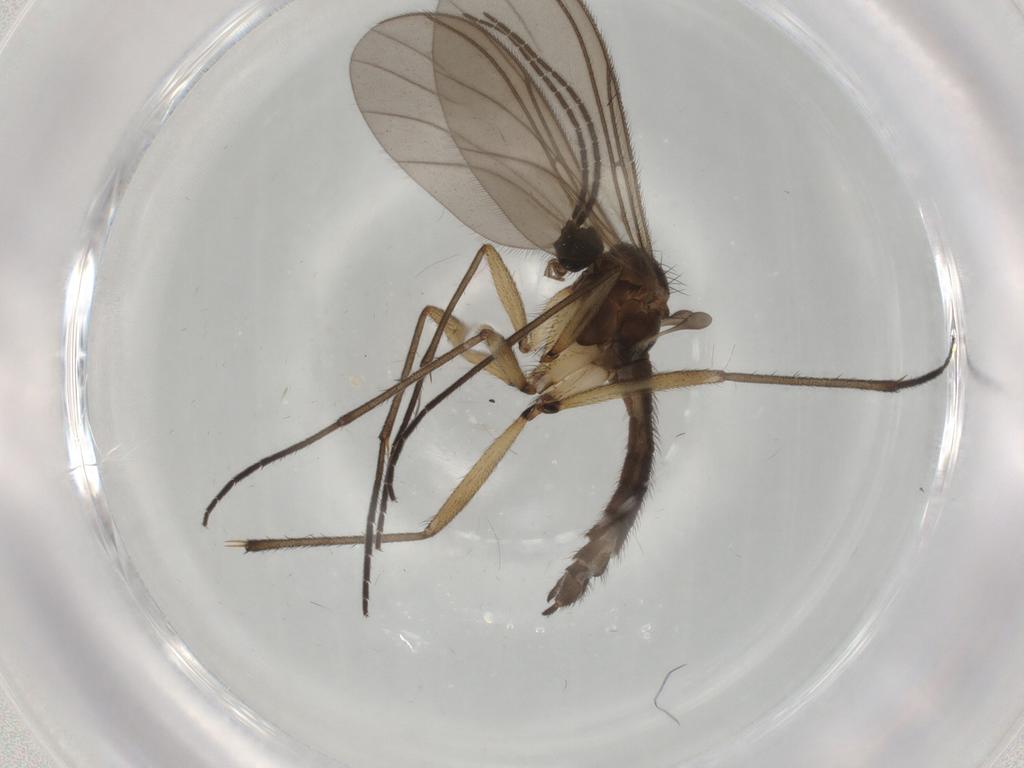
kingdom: Animalia
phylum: Arthropoda
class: Insecta
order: Diptera
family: Sciaridae
